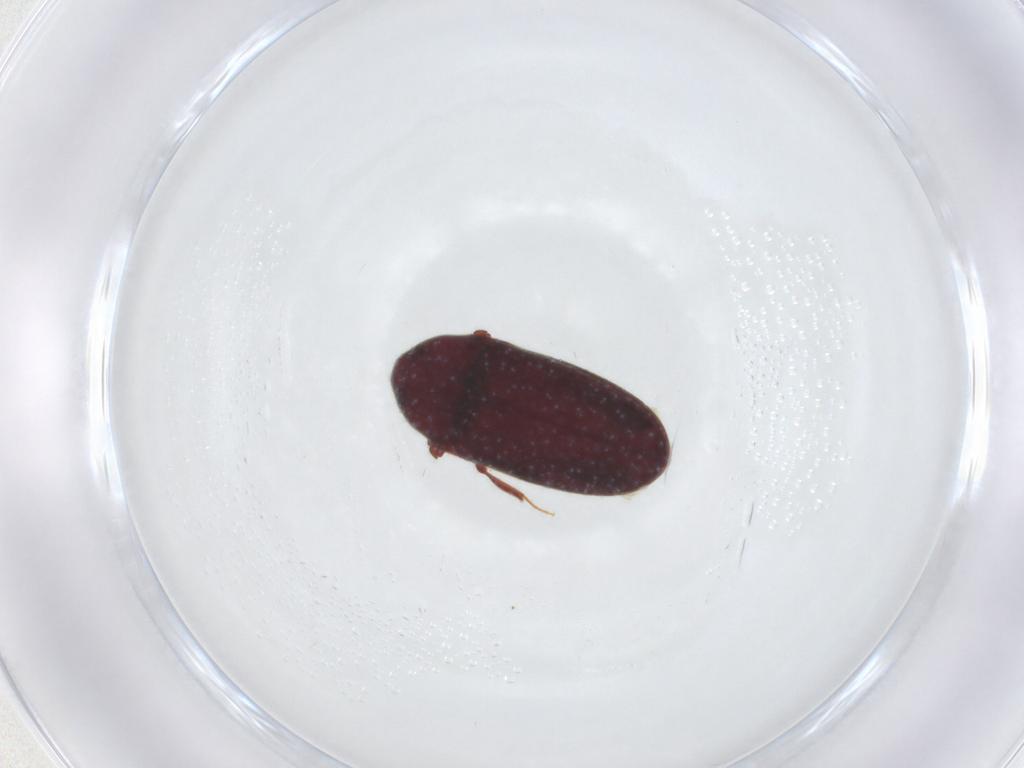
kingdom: Animalia
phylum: Arthropoda
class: Insecta
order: Coleoptera
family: Throscidae
